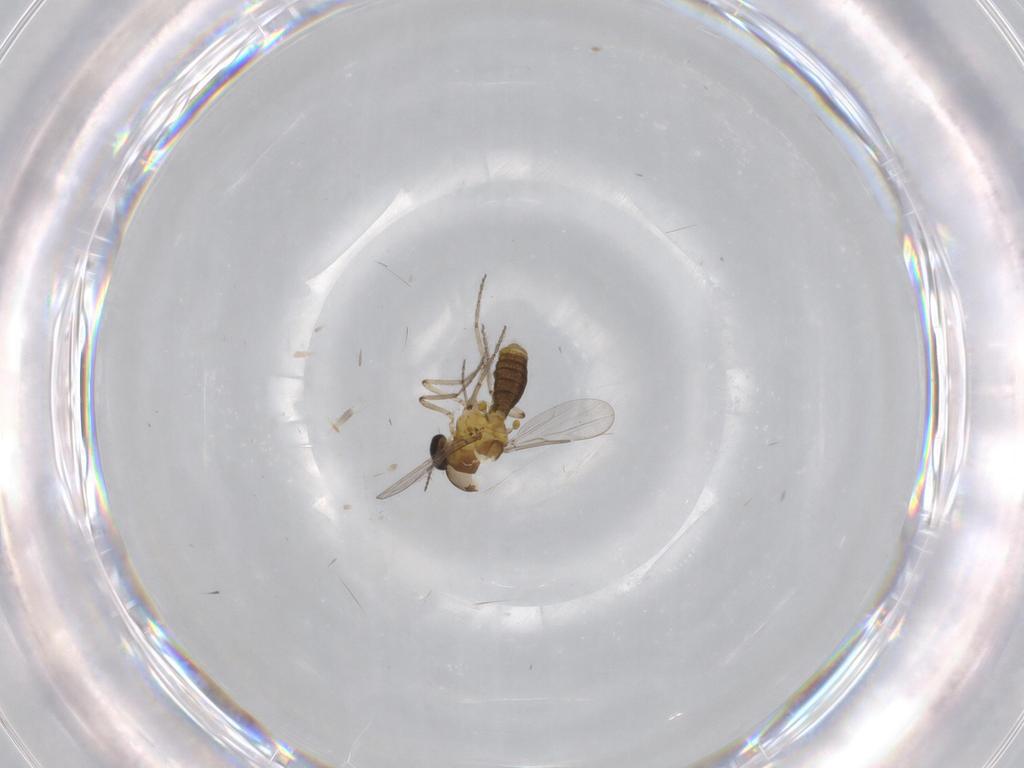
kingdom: Animalia
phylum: Arthropoda
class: Insecta
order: Diptera
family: Ceratopogonidae
